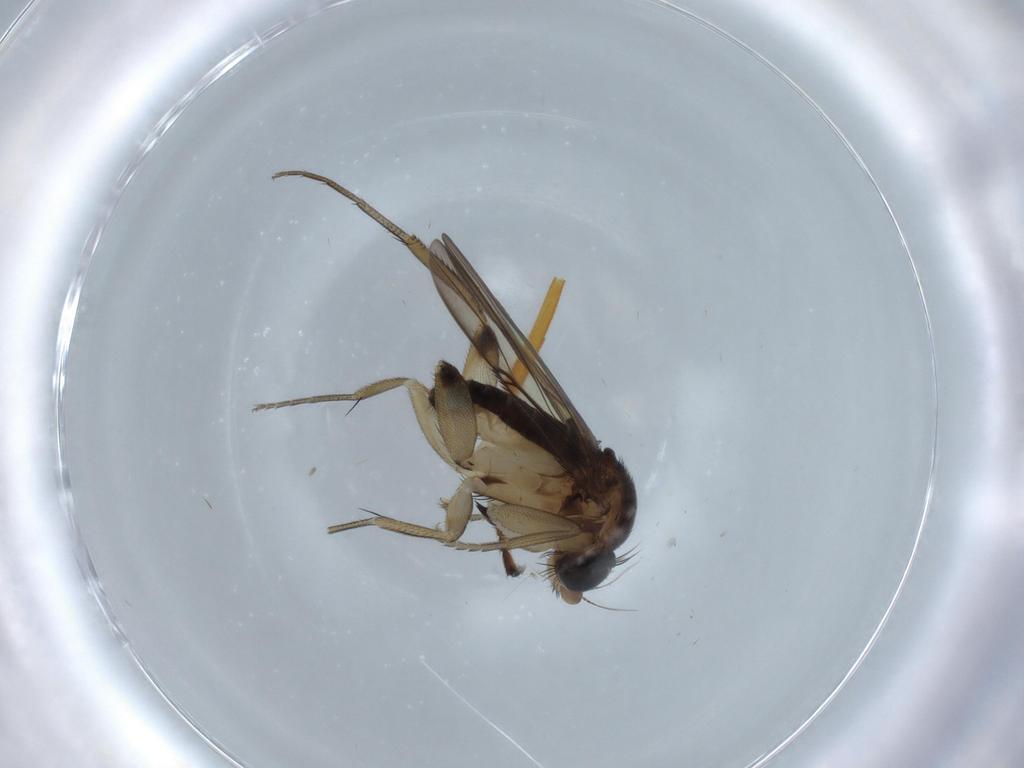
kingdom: Animalia
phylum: Arthropoda
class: Insecta
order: Diptera
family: Phoridae
